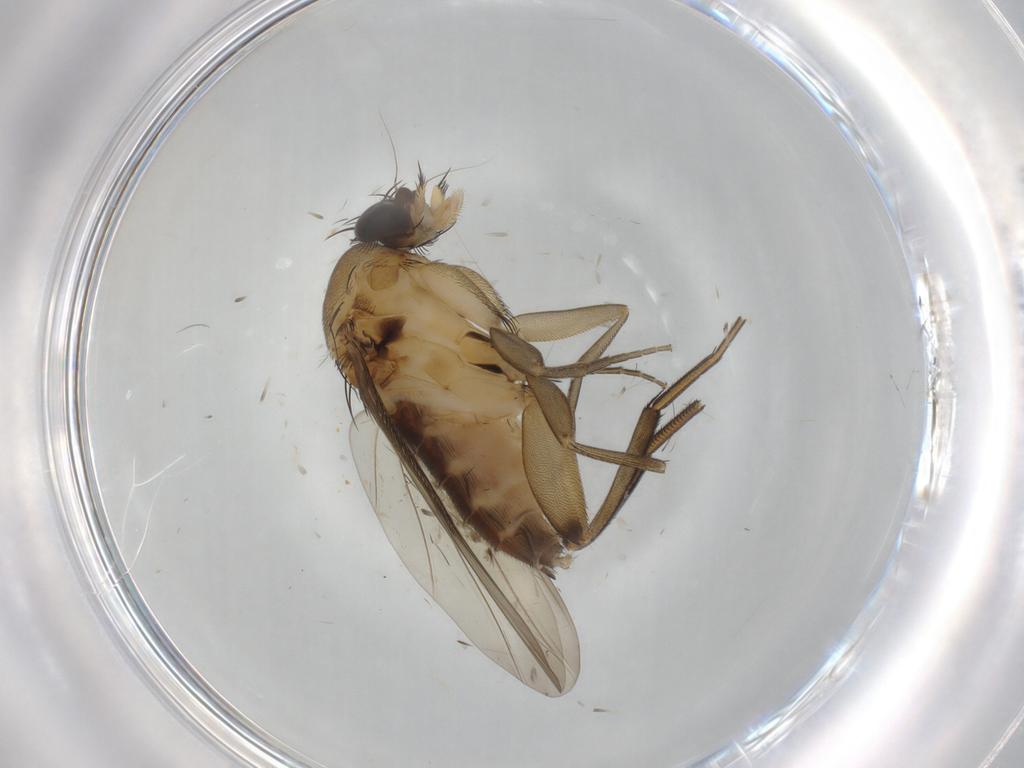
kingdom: Animalia
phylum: Arthropoda
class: Insecta
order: Diptera
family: Phoridae
